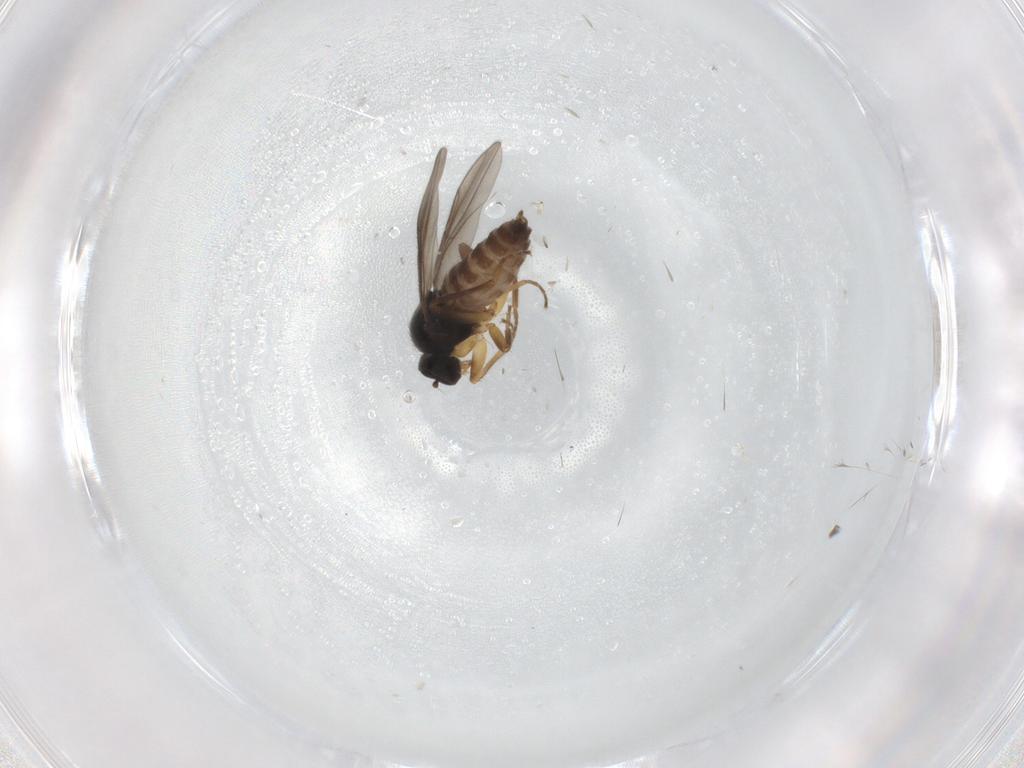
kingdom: Animalia
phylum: Arthropoda
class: Insecta
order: Diptera
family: Hybotidae
